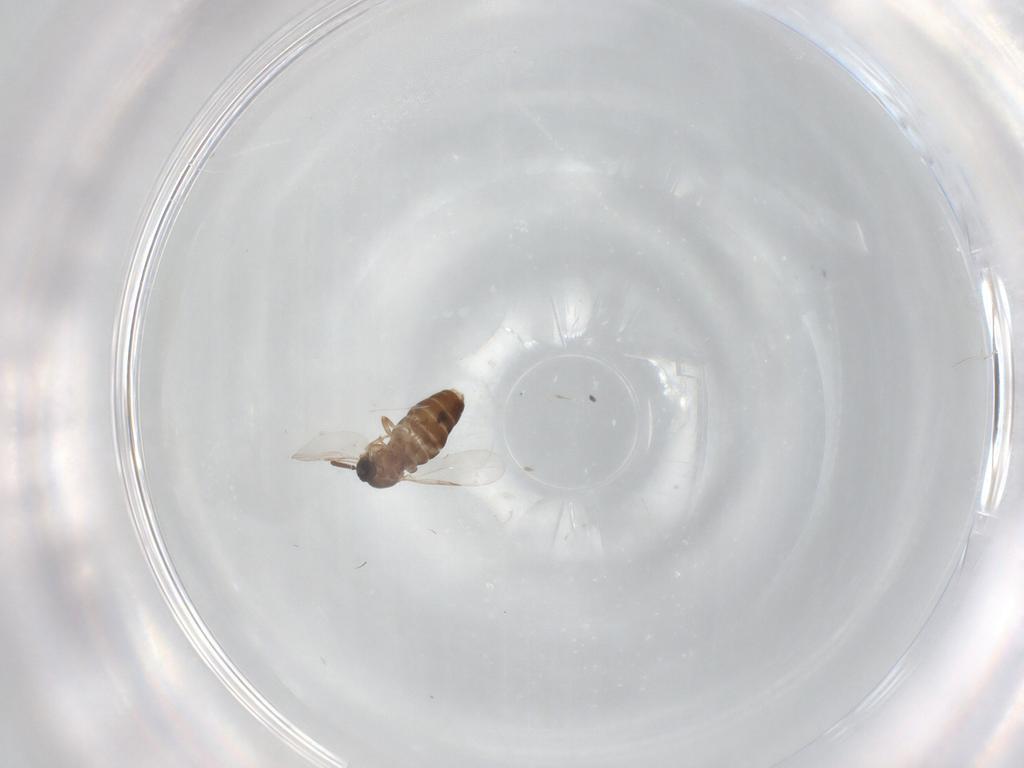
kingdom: Animalia
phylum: Arthropoda
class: Insecta
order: Diptera
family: Scatopsidae
